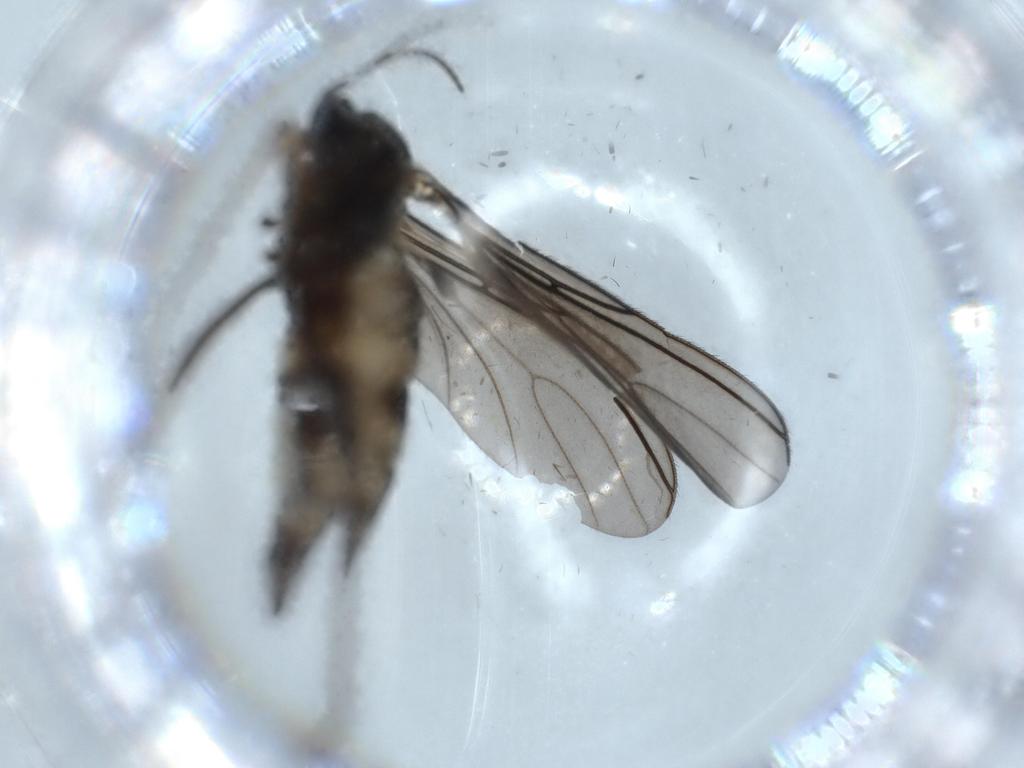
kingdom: Animalia
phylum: Arthropoda
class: Insecta
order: Diptera
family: Sciaridae
